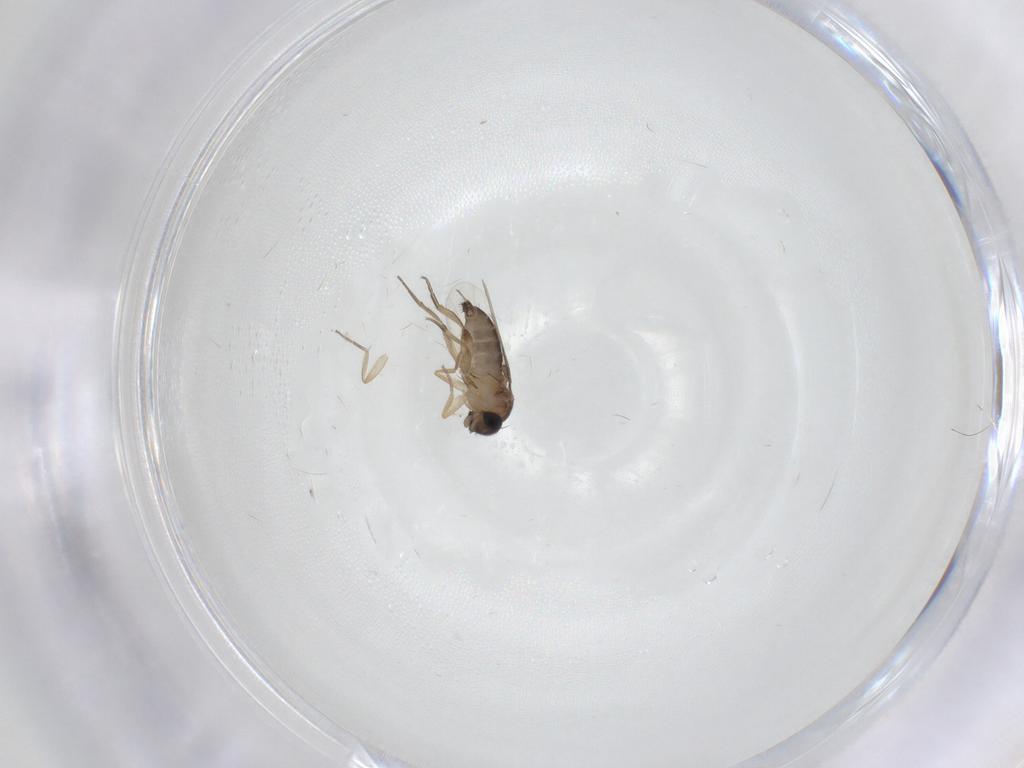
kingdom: Animalia
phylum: Arthropoda
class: Insecta
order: Diptera
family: Phoridae
